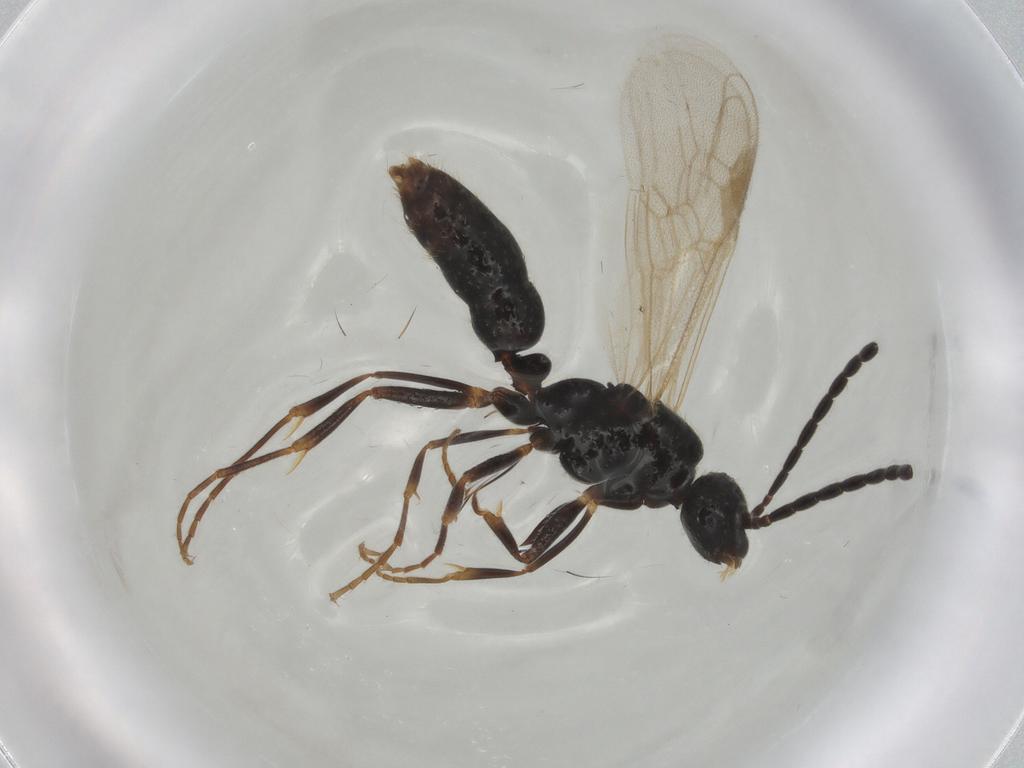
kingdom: Animalia
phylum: Arthropoda
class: Insecta
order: Hymenoptera
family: Formicidae
